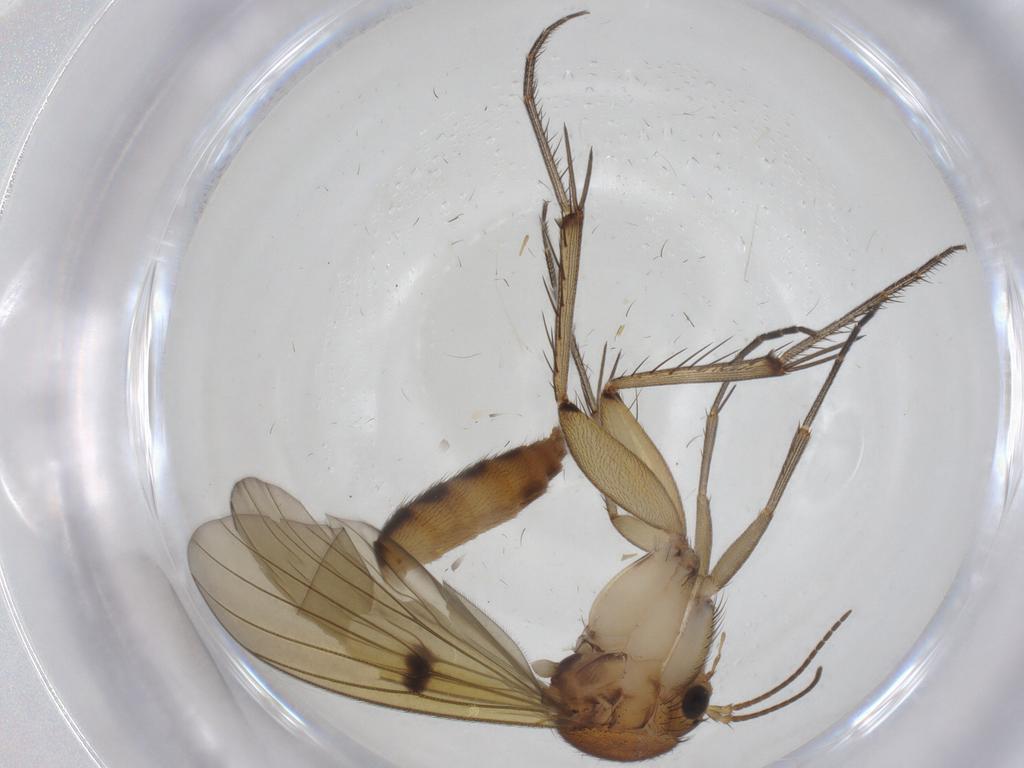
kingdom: Animalia
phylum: Arthropoda
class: Insecta
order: Diptera
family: Mycetophilidae
